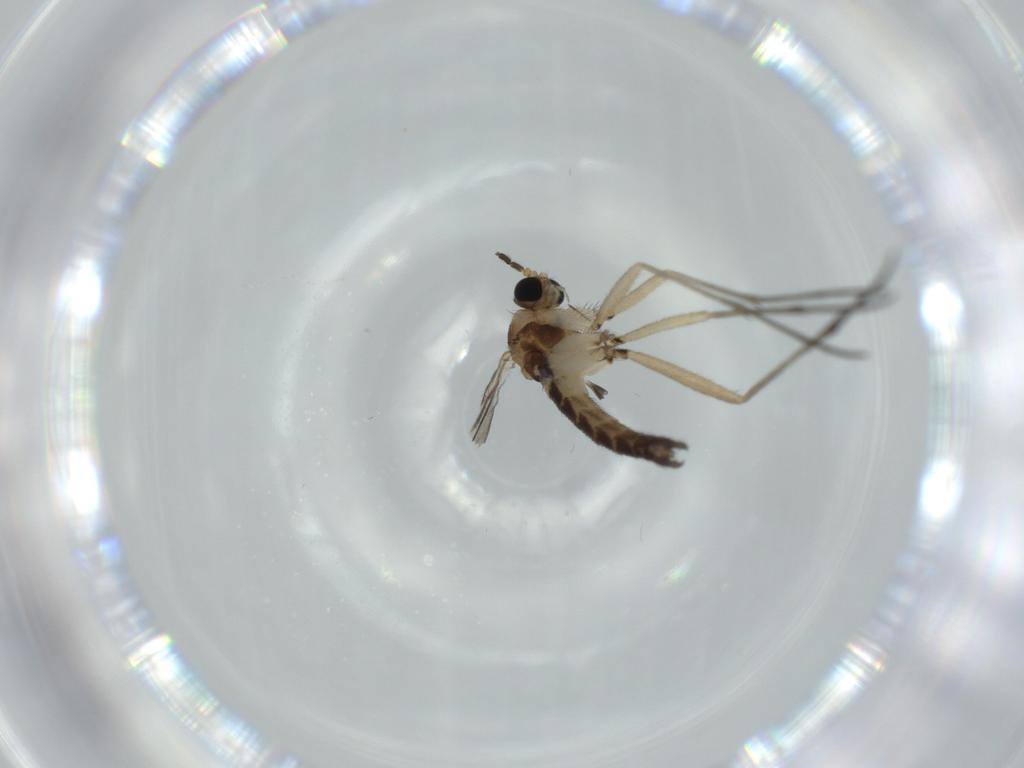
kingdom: Animalia
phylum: Arthropoda
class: Insecta
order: Diptera
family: Sciaridae
